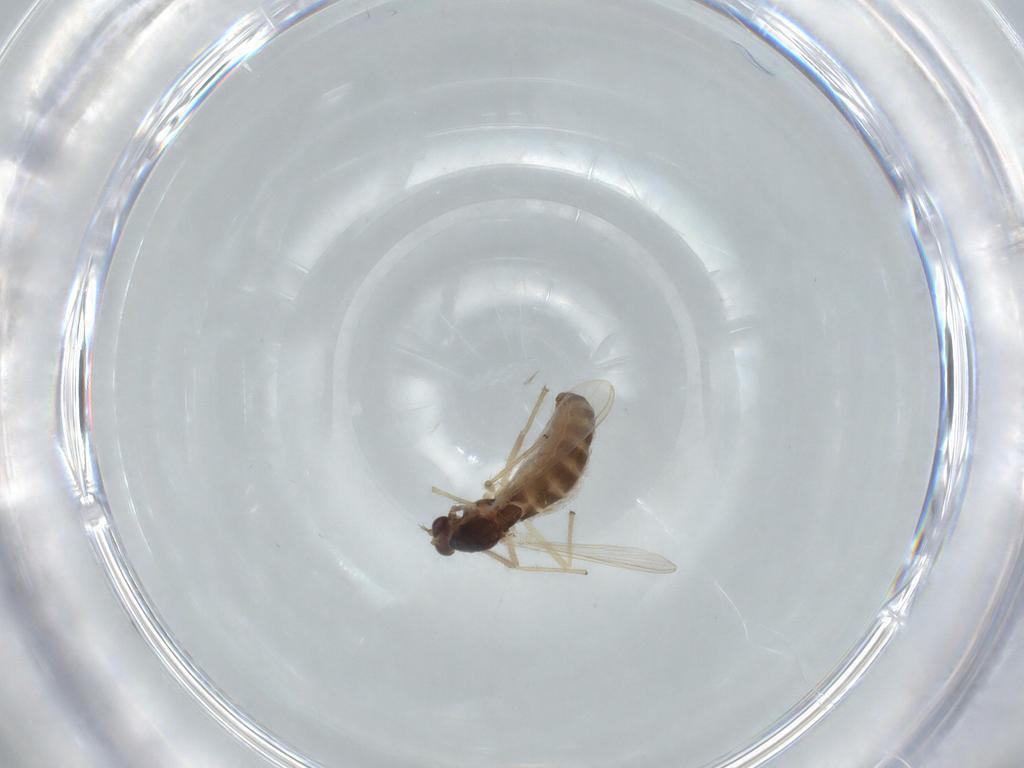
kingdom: Animalia
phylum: Arthropoda
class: Insecta
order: Diptera
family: Chironomidae
